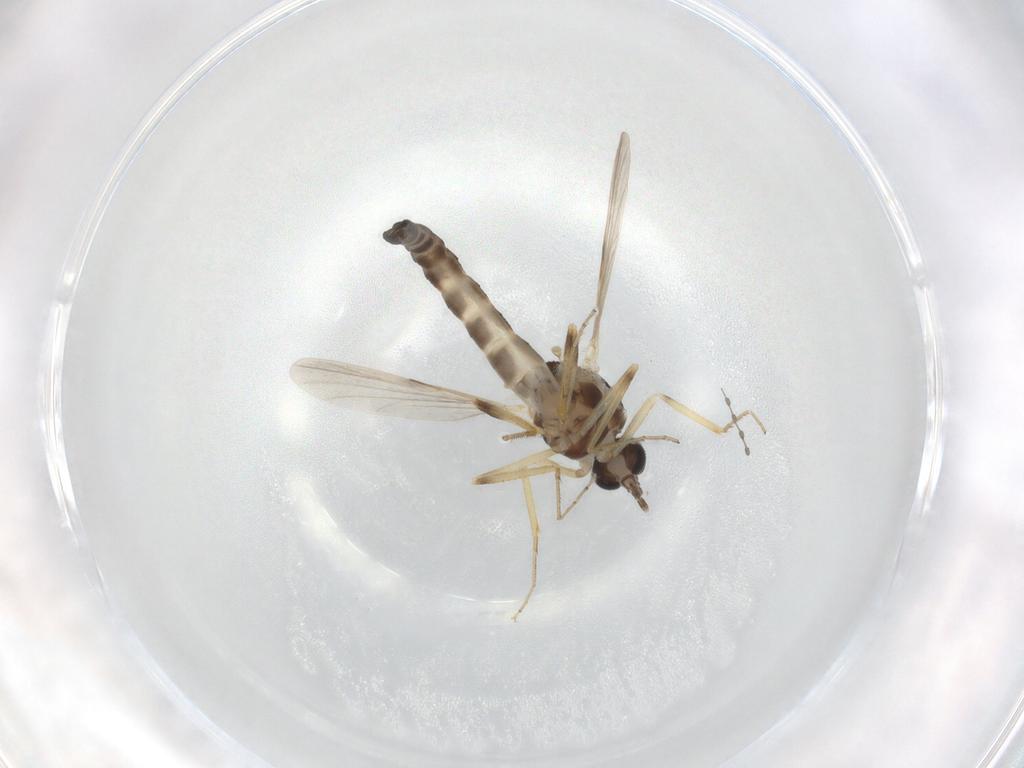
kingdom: Animalia
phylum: Arthropoda
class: Insecta
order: Diptera
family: Ceratopogonidae
